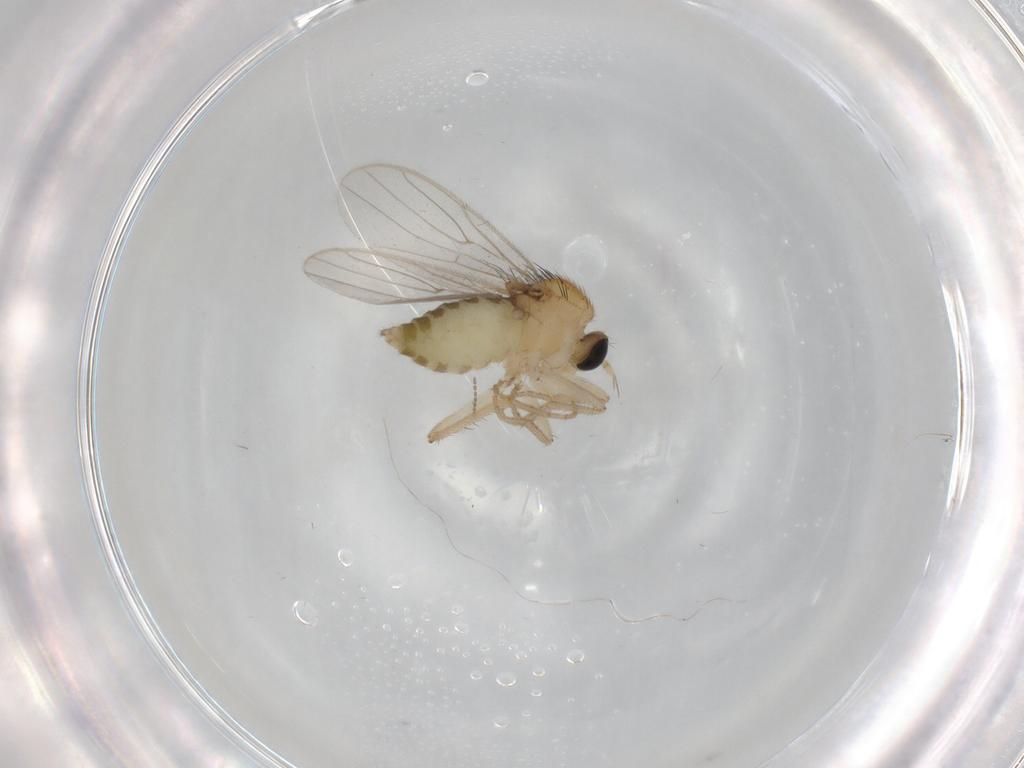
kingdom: Animalia
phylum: Arthropoda
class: Insecta
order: Diptera
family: Hybotidae
